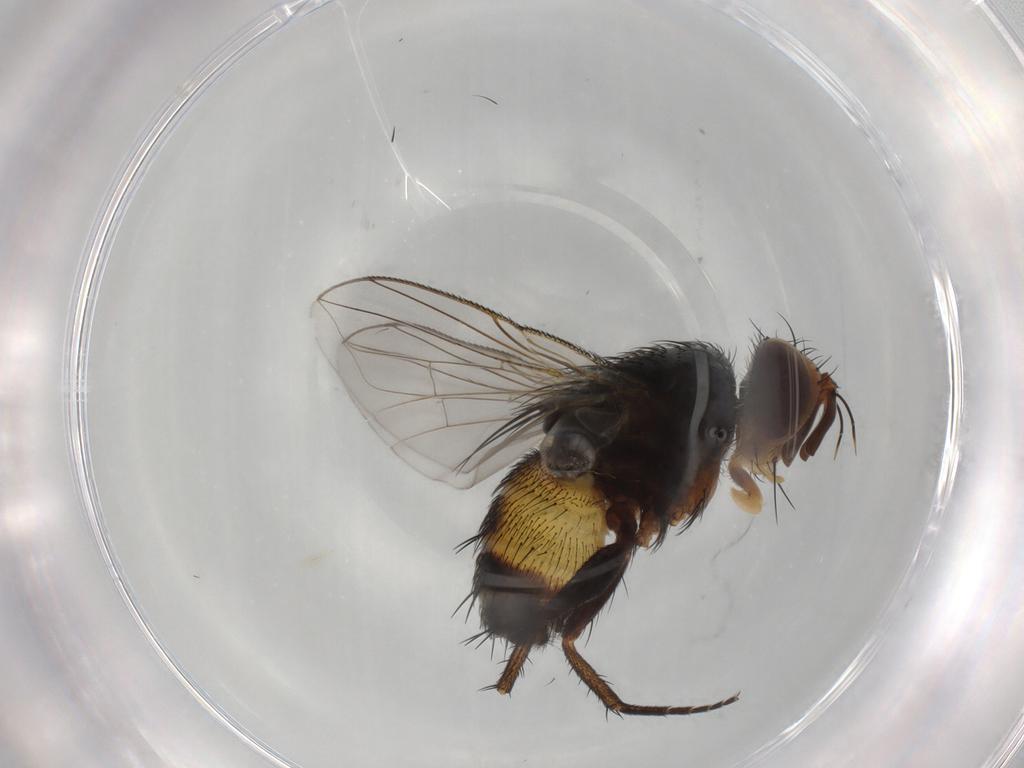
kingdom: Animalia
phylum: Arthropoda
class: Insecta
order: Diptera
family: Tachinidae
